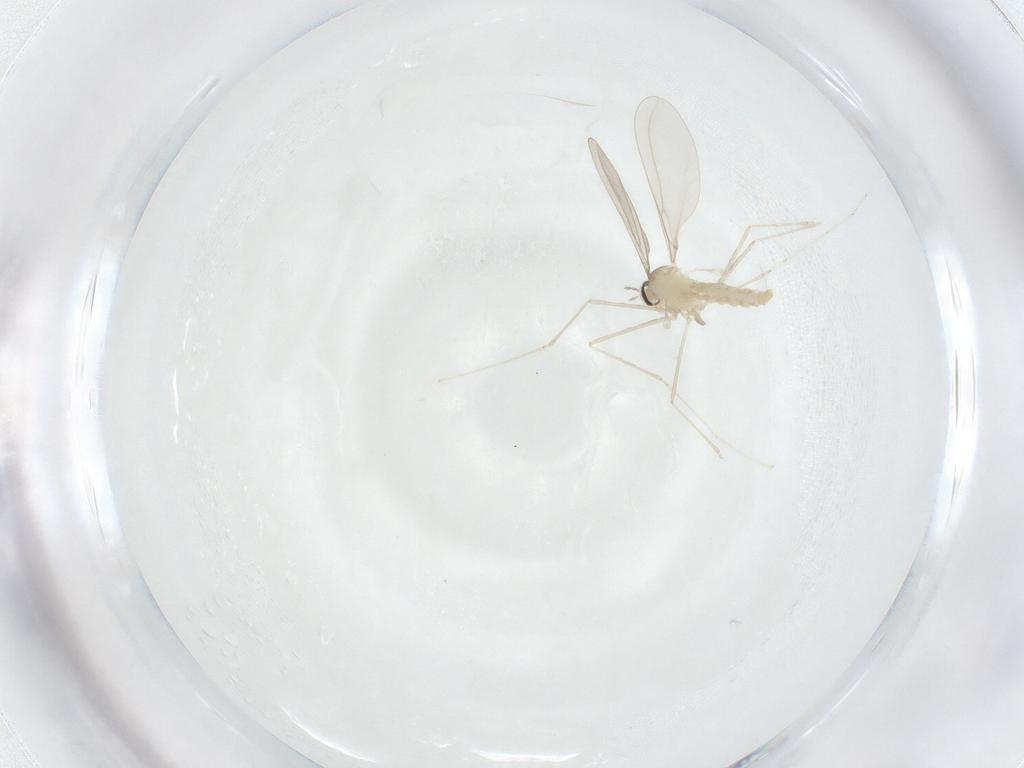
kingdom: Animalia
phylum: Arthropoda
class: Insecta
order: Diptera
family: Cecidomyiidae
